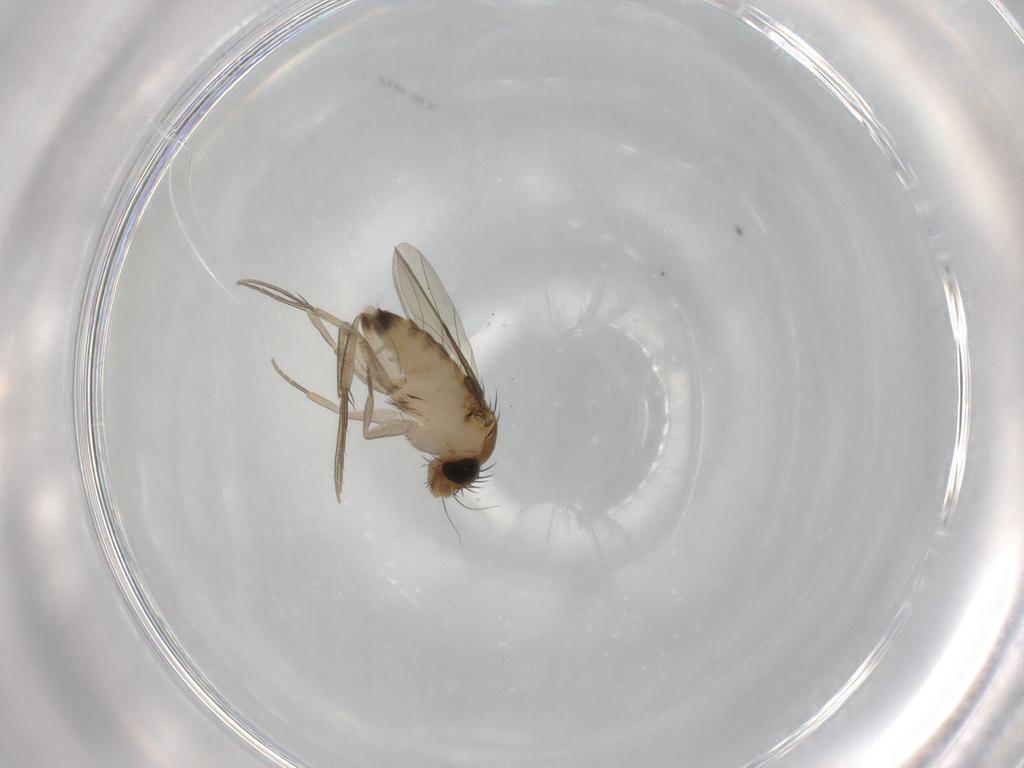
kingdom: Animalia
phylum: Arthropoda
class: Insecta
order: Diptera
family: Phoridae
